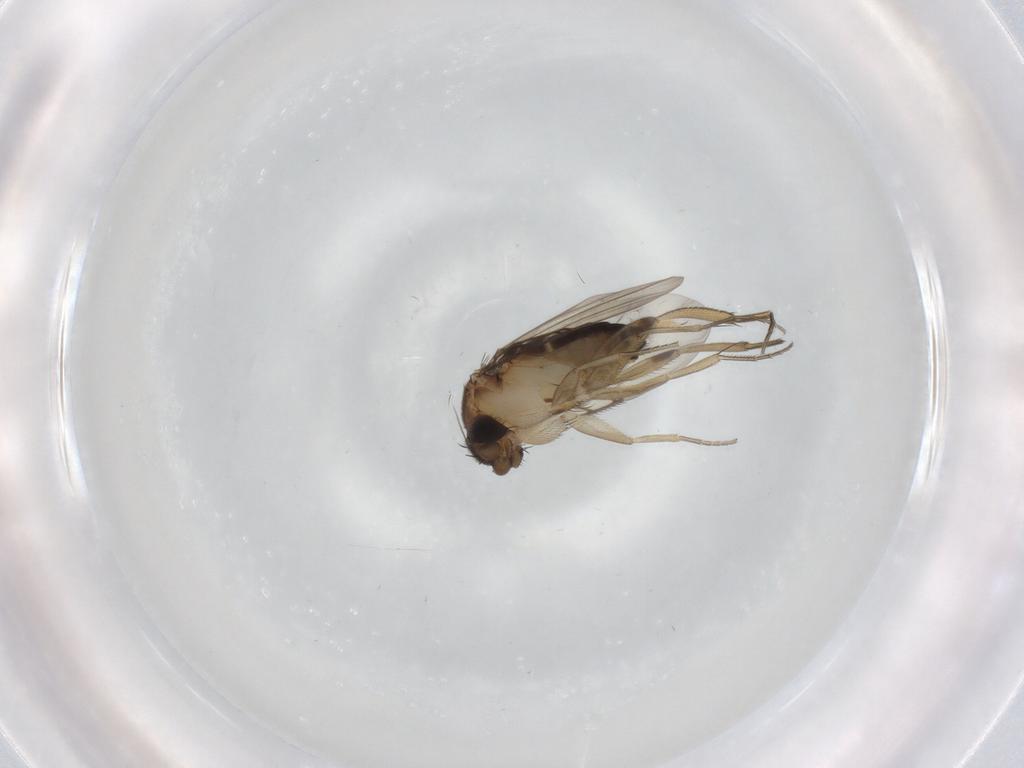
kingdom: Animalia
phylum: Arthropoda
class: Insecta
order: Diptera
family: Phoridae
